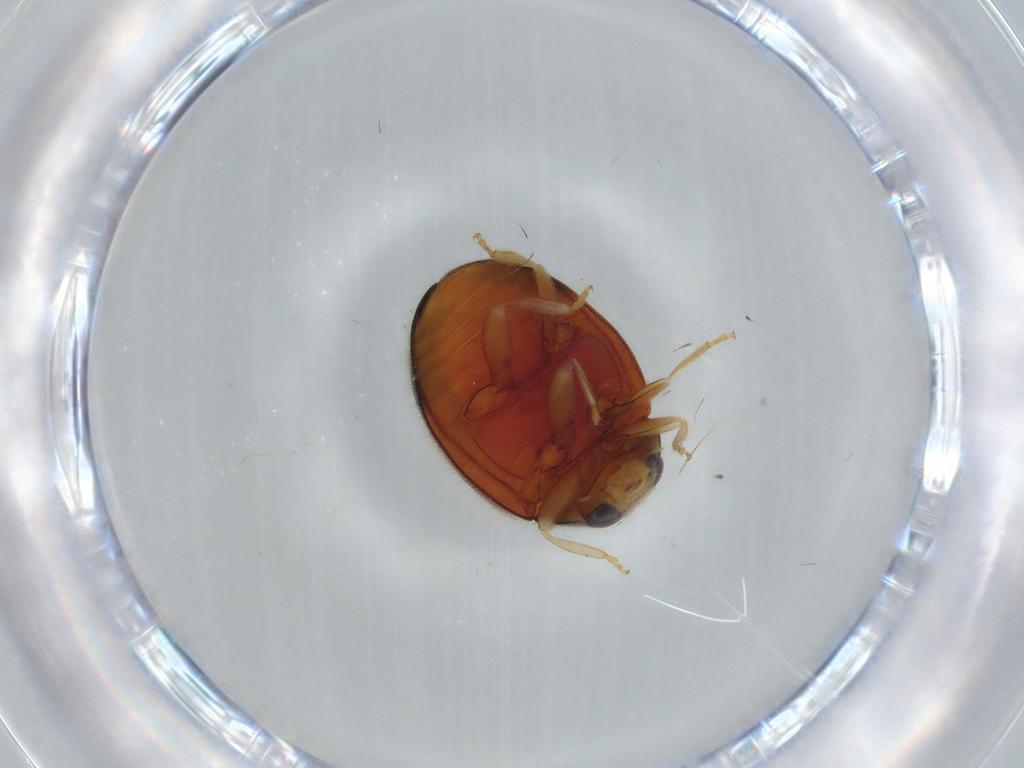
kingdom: Animalia
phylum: Arthropoda
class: Insecta
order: Coleoptera
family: Coccinellidae
